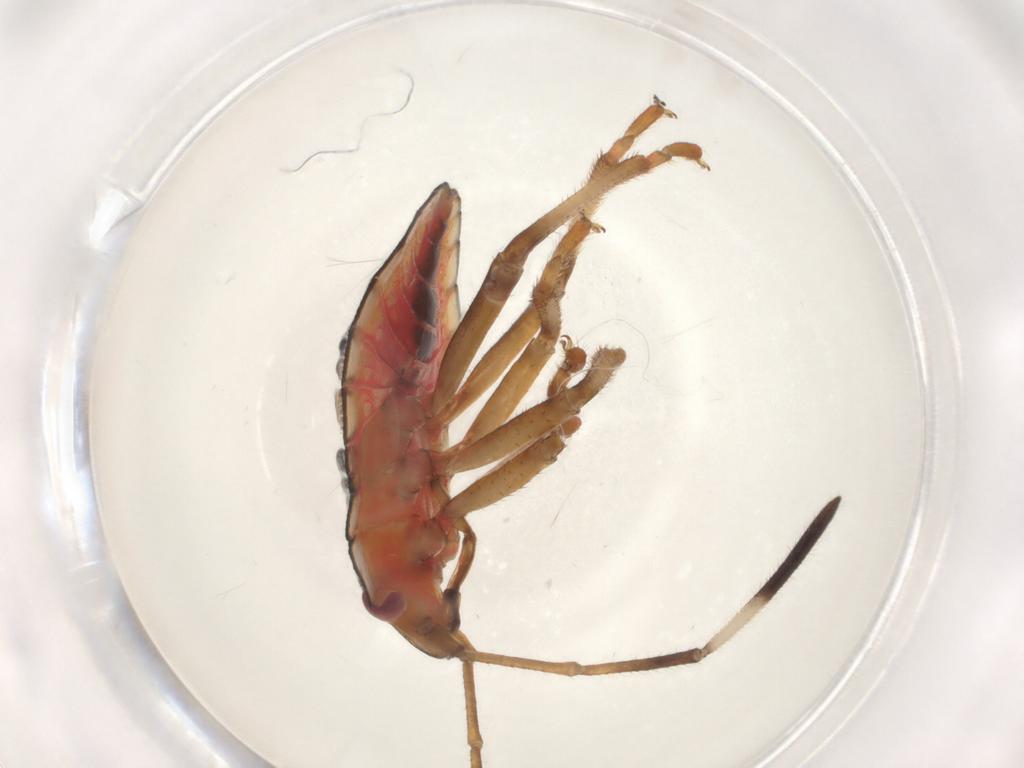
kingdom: Animalia
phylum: Arthropoda
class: Insecta
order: Hemiptera
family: Pentatomidae
